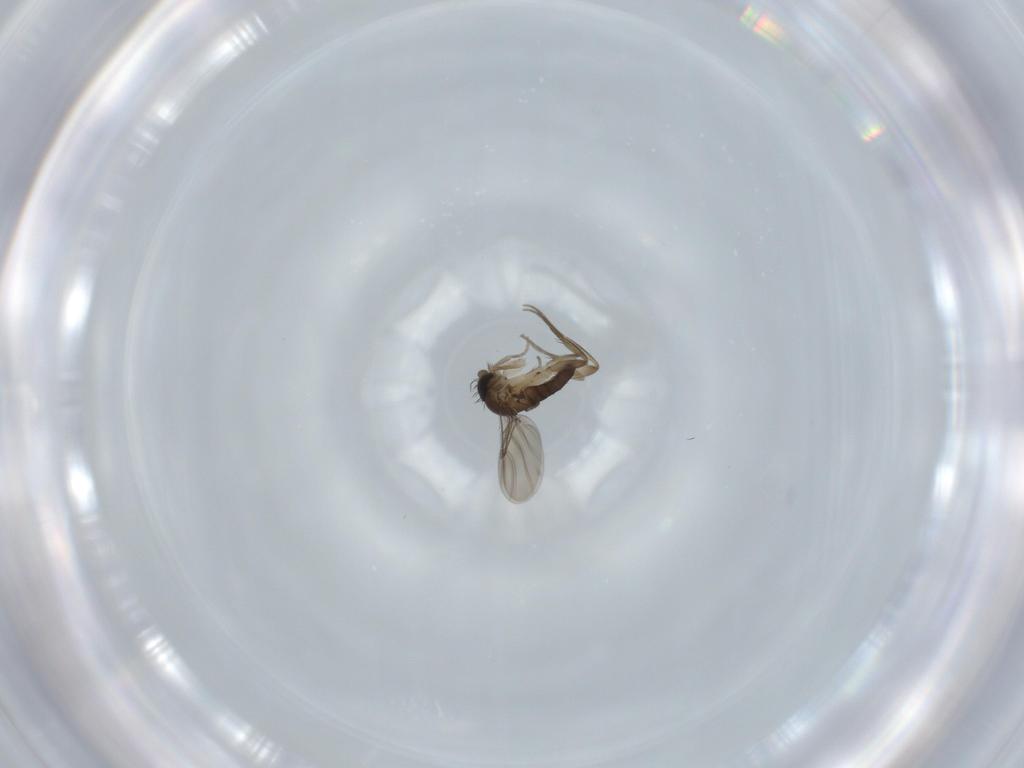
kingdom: Animalia
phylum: Arthropoda
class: Insecta
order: Diptera
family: Phoridae
